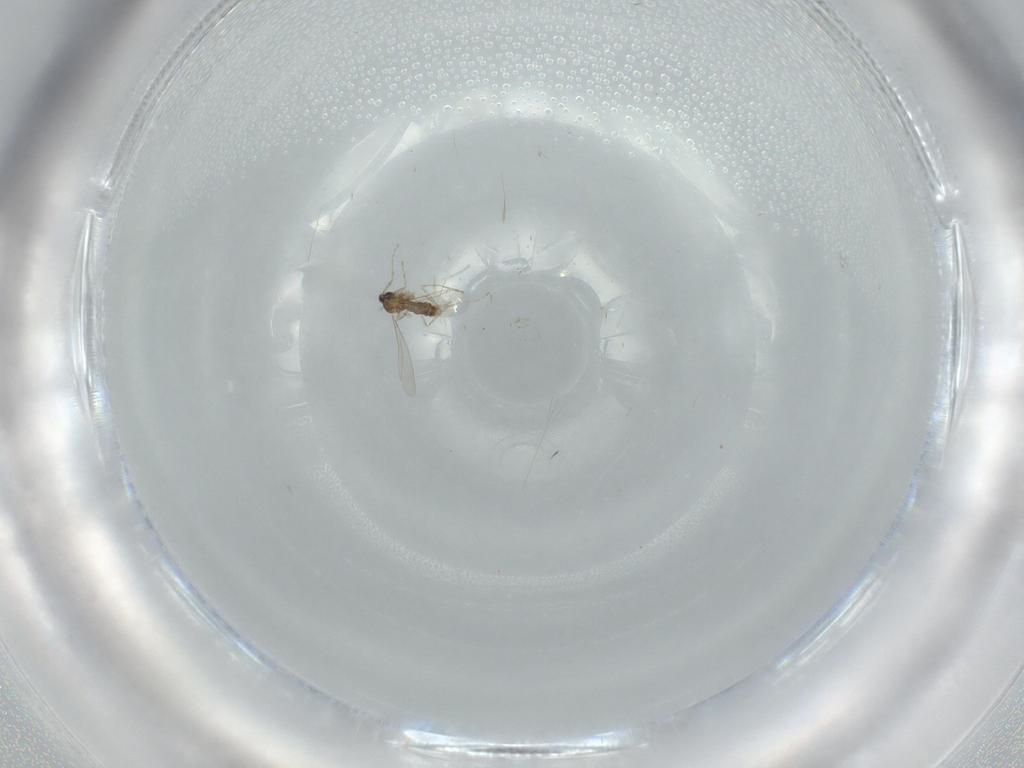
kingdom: Animalia
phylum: Arthropoda
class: Insecta
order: Diptera
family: Cecidomyiidae
